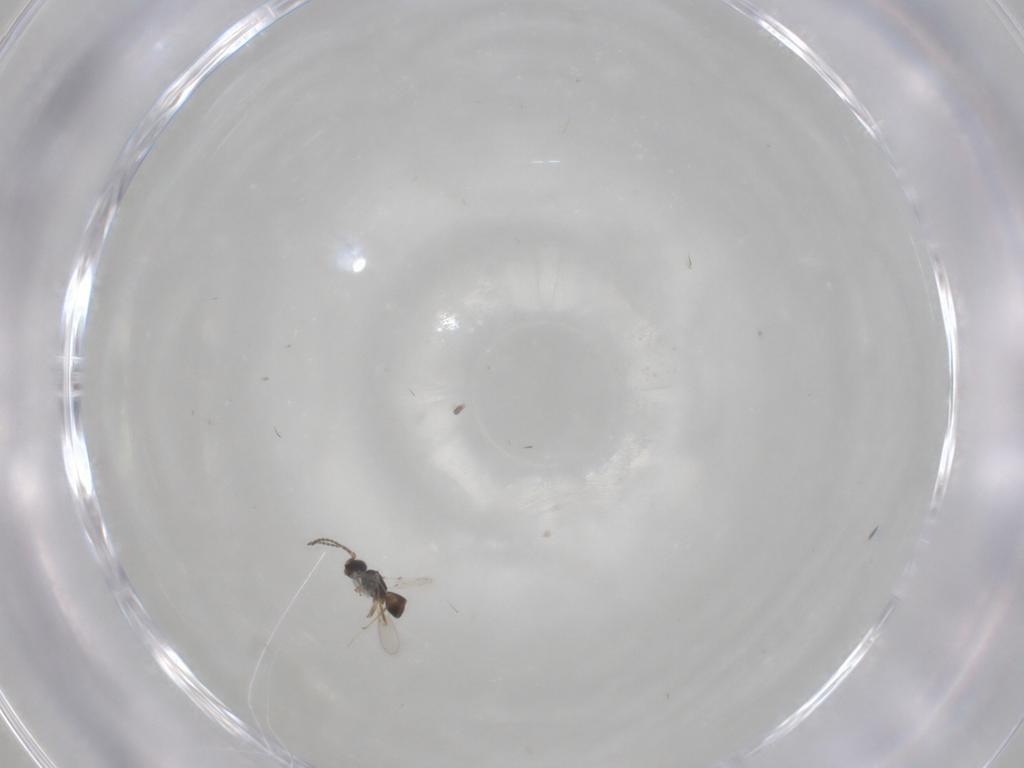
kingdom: Animalia
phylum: Arthropoda
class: Insecta
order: Hymenoptera
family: Scelionidae
